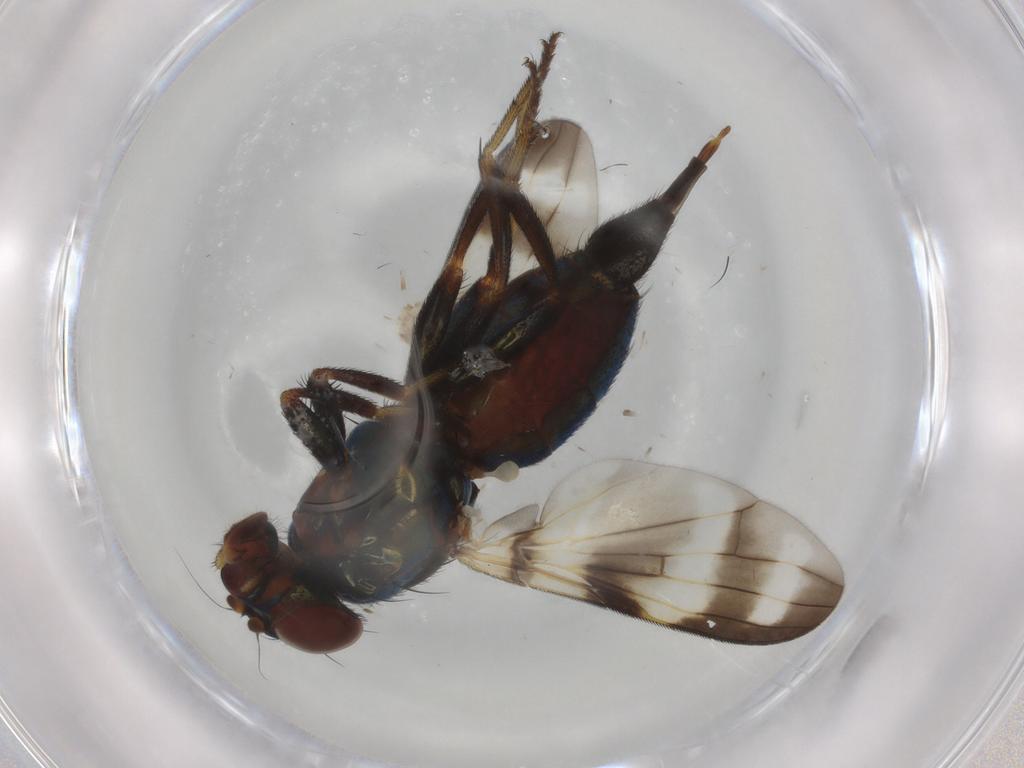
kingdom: Animalia
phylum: Arthropoda
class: Insecta
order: Diptera
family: Ulidiidae
